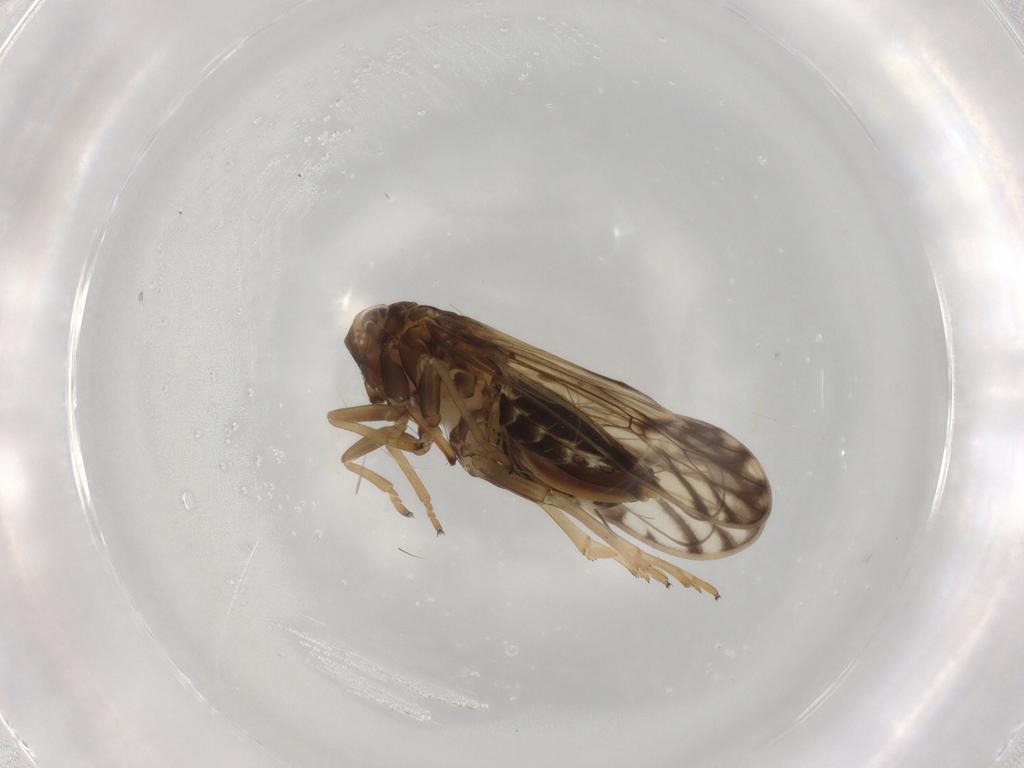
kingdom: Animalia
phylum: Arthropoda
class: Insecta
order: Hemiptera
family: Delphacidae
